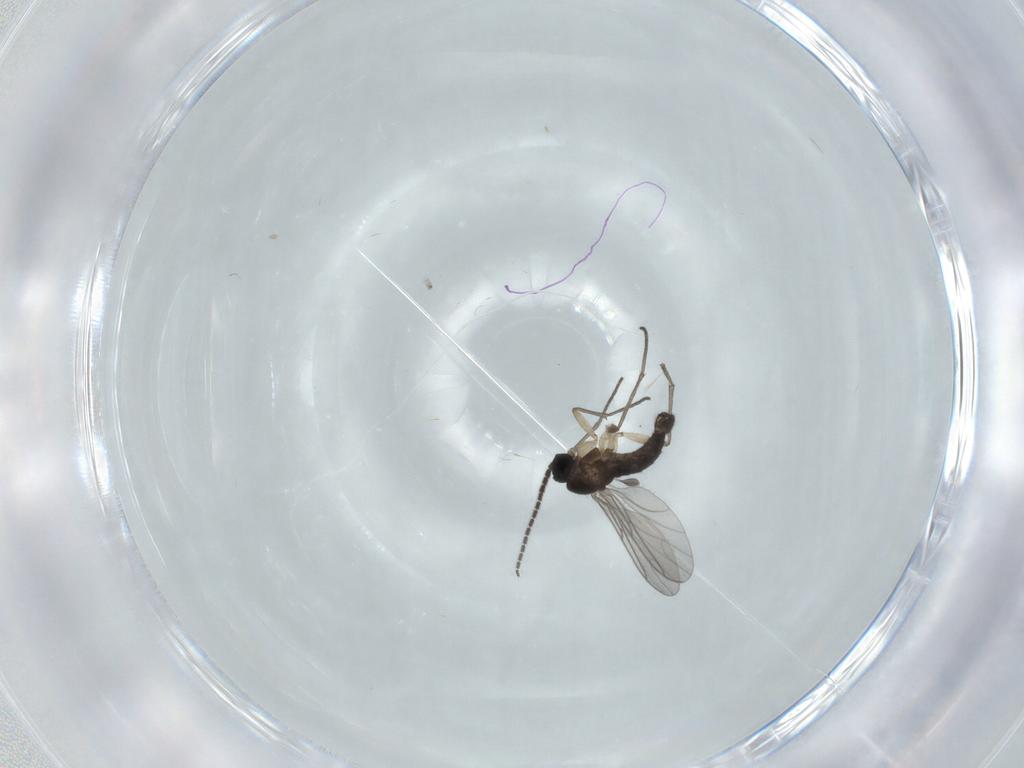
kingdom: Animalia
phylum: Arthropoda
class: Insecta
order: Diptera
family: Sciaridae
